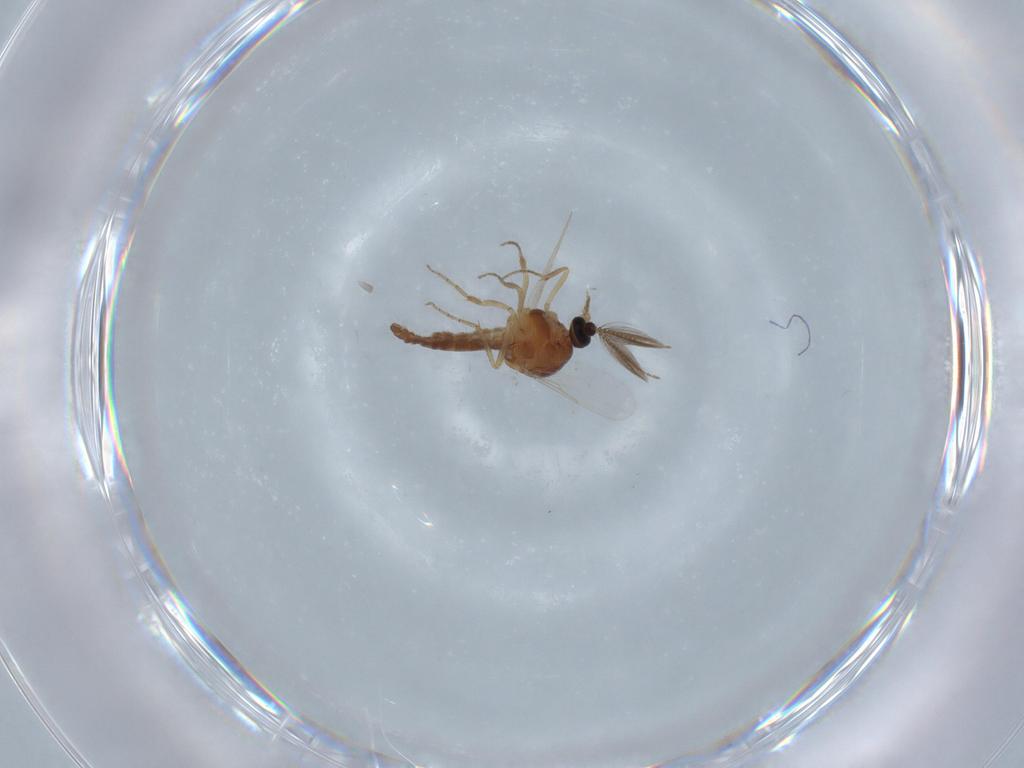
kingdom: Animalia
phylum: Arthropoda
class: Insecta
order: Diptera
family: Ceratopogonidae
